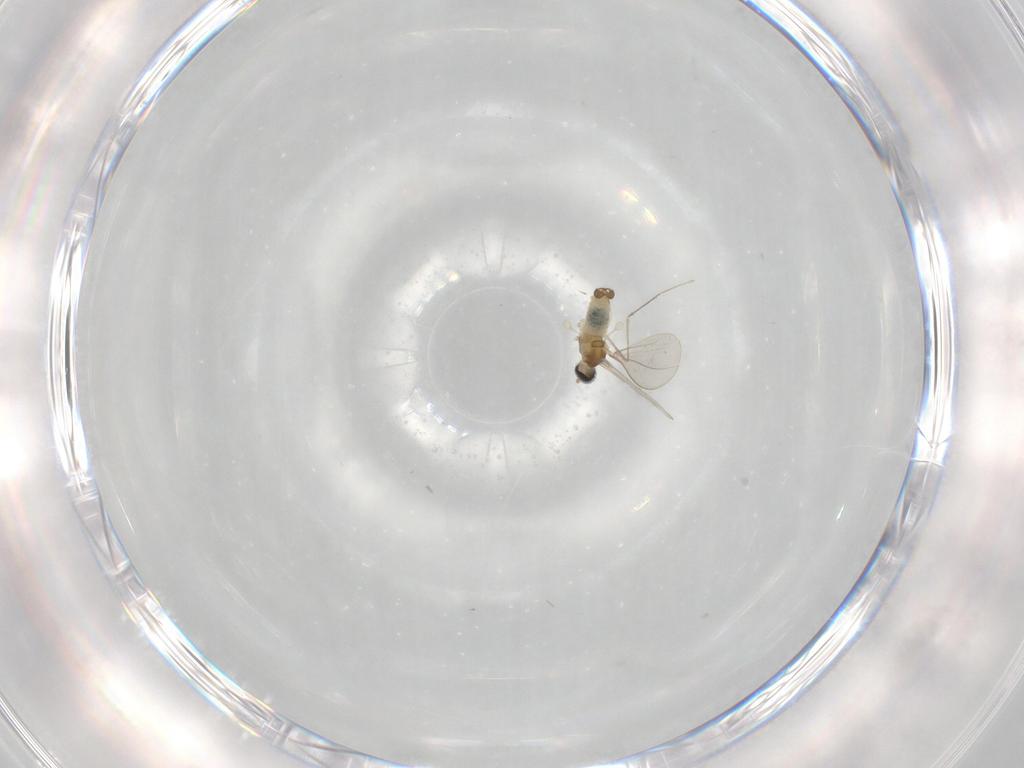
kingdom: Animalia
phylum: Arthropoda
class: Insecta
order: Diptera
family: Cecidomyiidae
